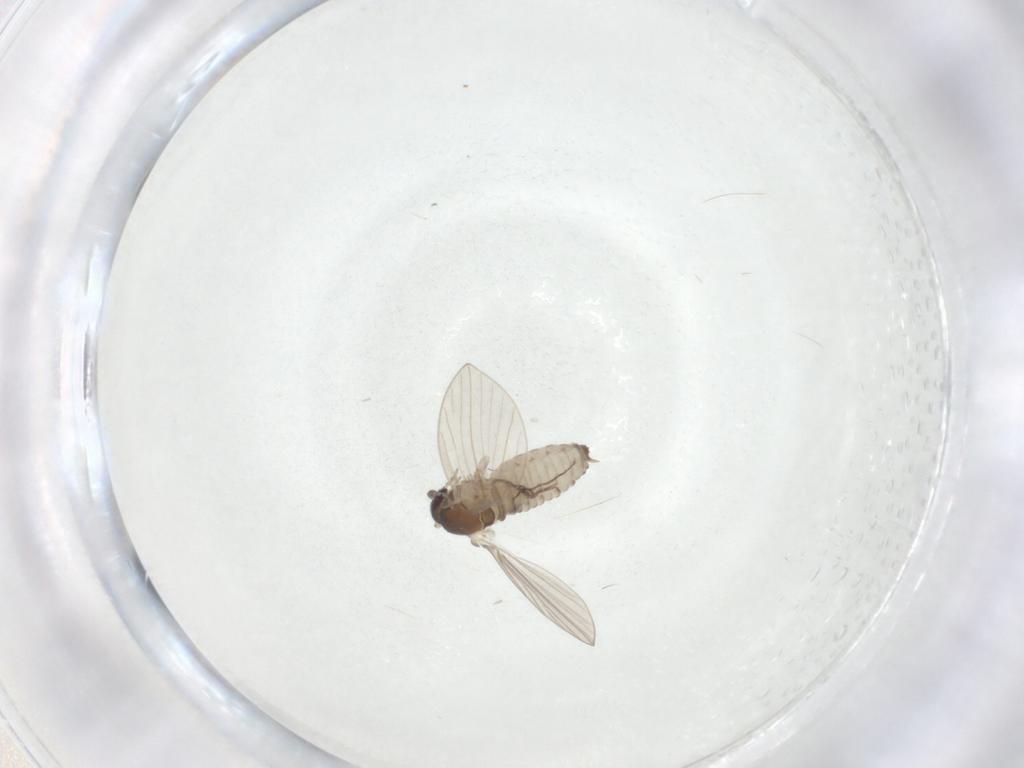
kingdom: Animalia
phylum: Arthropoda
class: Insecta
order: Diptera
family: Psychodidae
